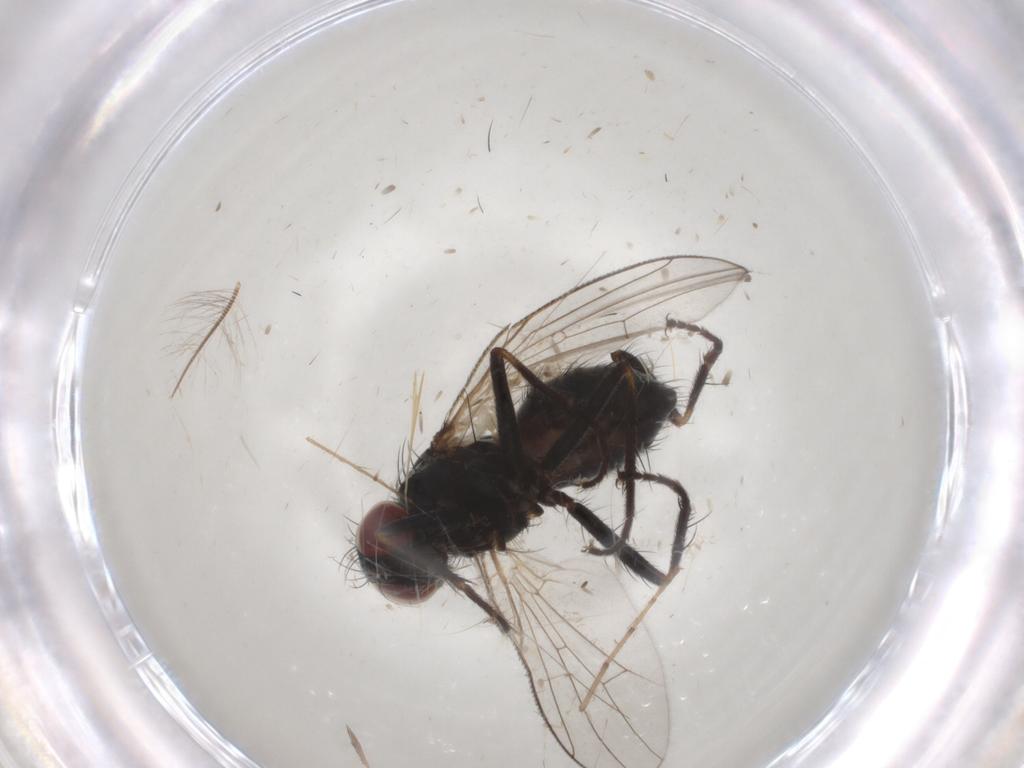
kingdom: Animalia
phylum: Arthropoda
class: Insecta
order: Diptera
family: Muscidae
